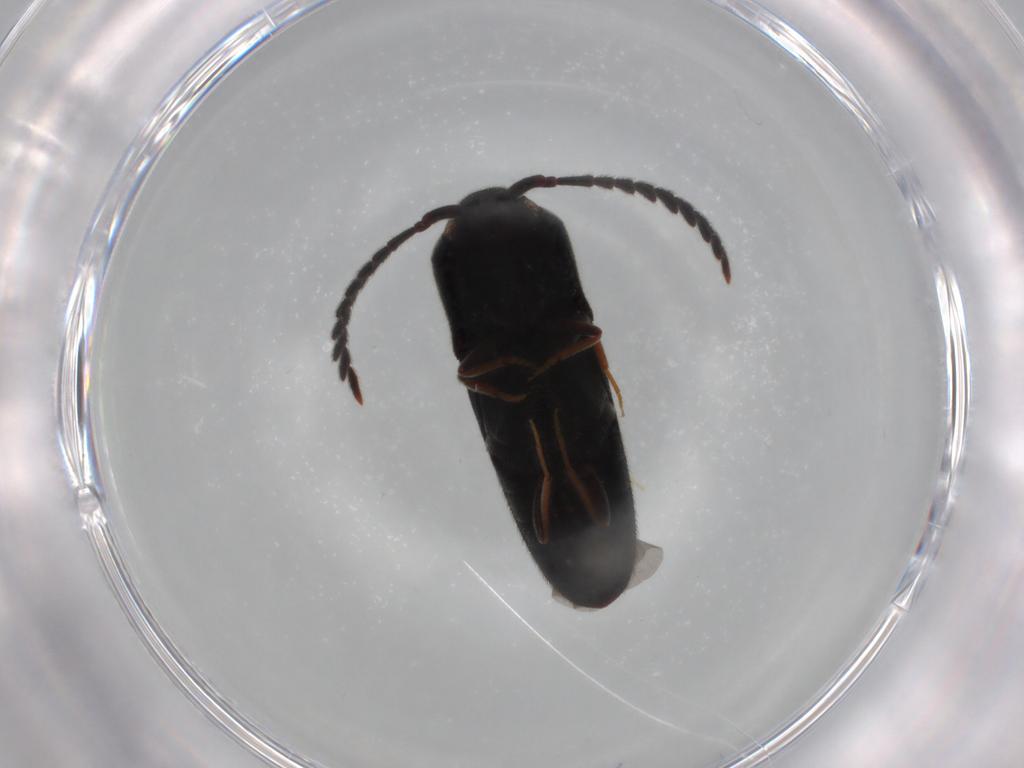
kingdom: Animalia
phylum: Arthropoda
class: Insecta
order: Coleoptera
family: Eucnemidae
